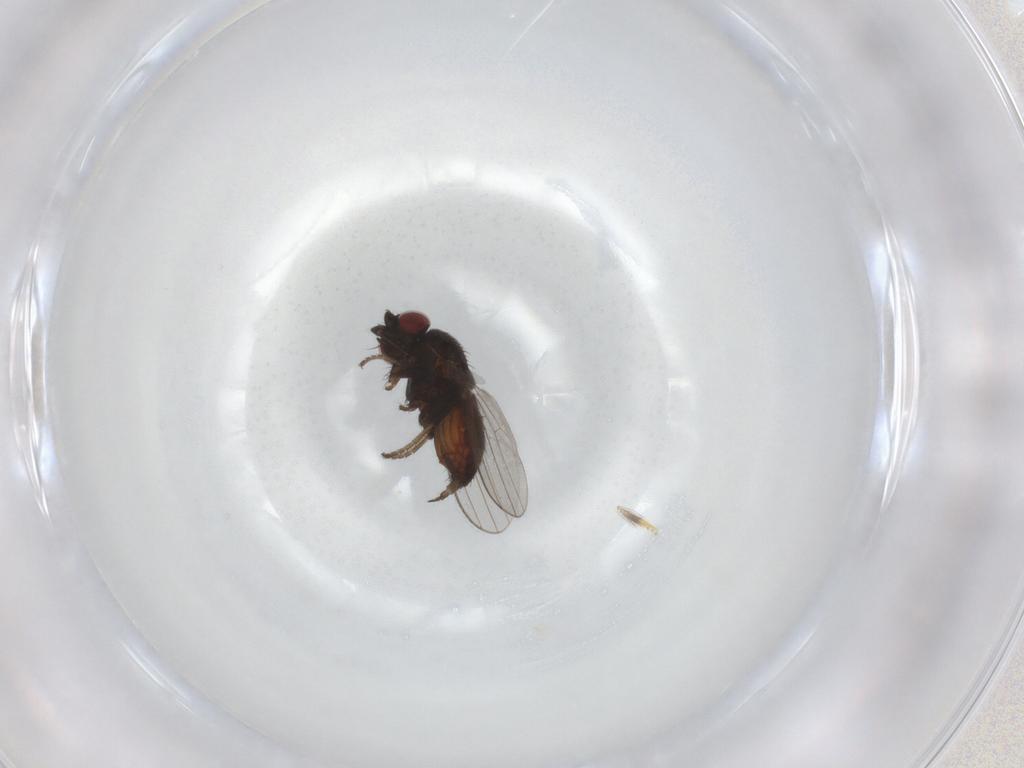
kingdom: Animalia
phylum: Arthropoda
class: Insecta
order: Diptera
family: Milichiidae
